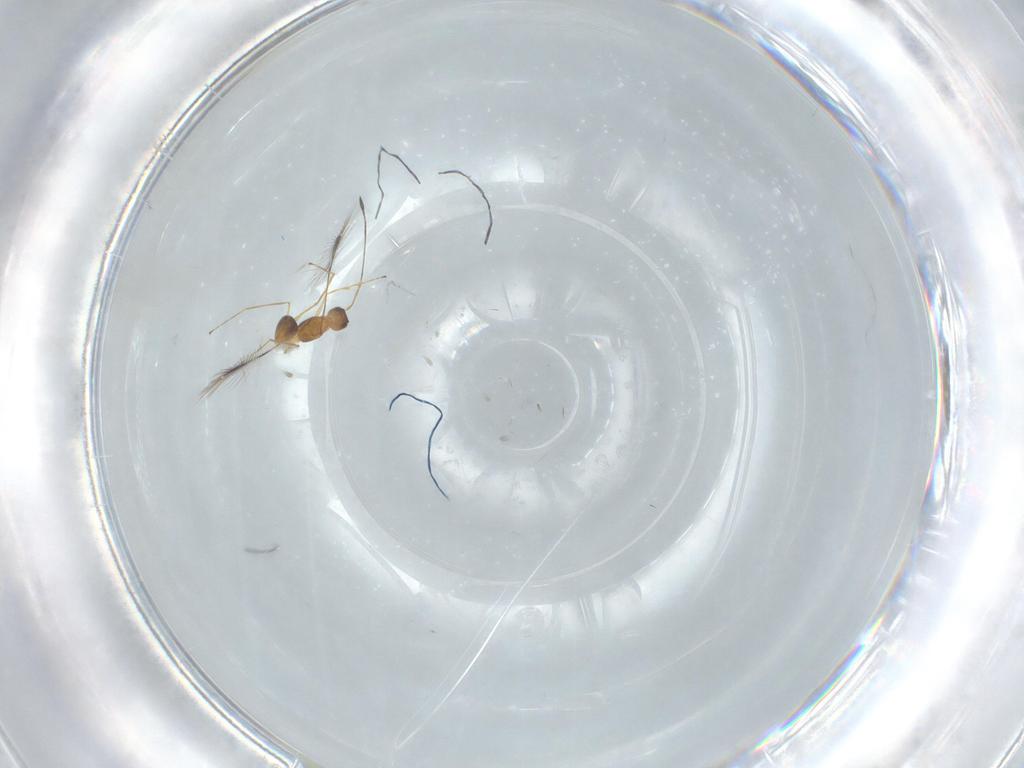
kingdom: Animalia
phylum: Arthropoda
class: Insecta
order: Hymenoptera
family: Mymaridae
